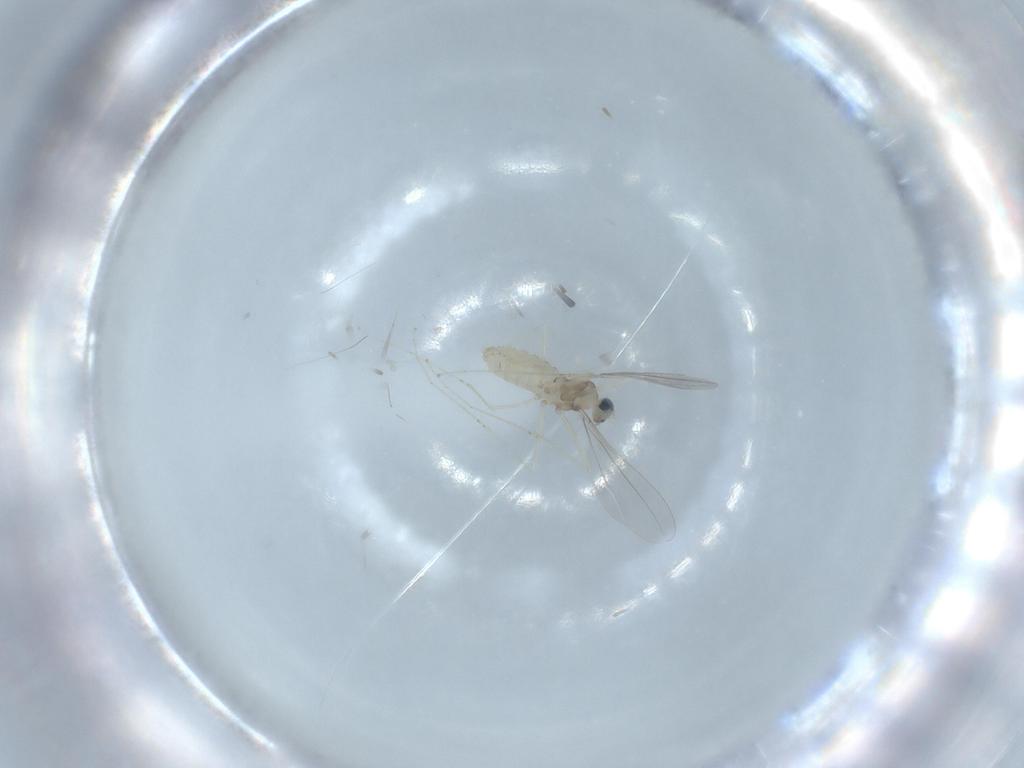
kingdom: Animalia
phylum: Arthropoda
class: Insecta
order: Diptera
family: Cecidomyiidae
